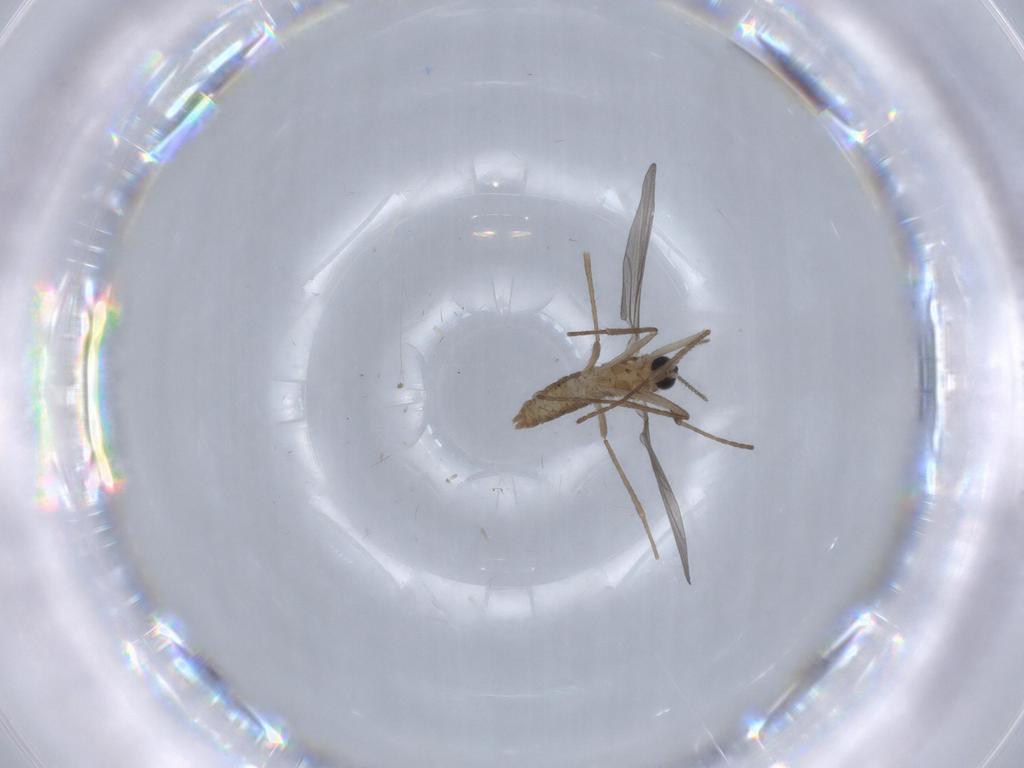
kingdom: Animalia
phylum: Arthropoda
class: Insecta
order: Diptera
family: Cecidomyiidae
